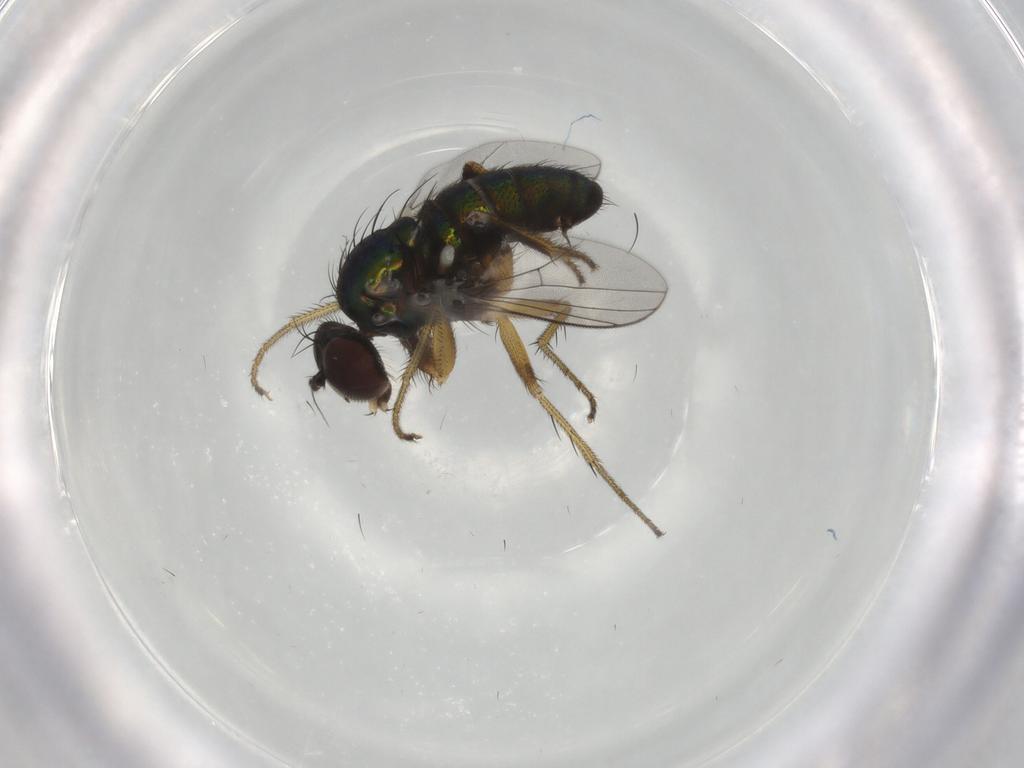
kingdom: Animalia
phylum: Arthropoda
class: Insecta
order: Diptera
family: Dolichopodidae
